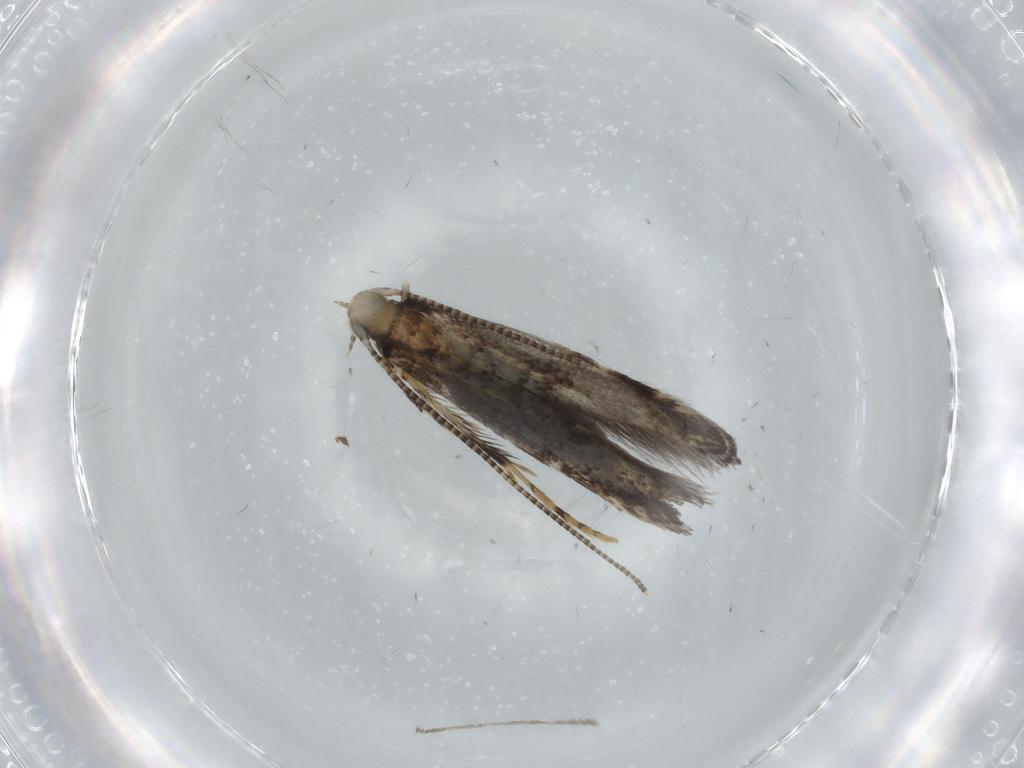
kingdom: Animalia
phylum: Arthropoda
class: Insecta
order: Lepidoptera
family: Gracillariidae
